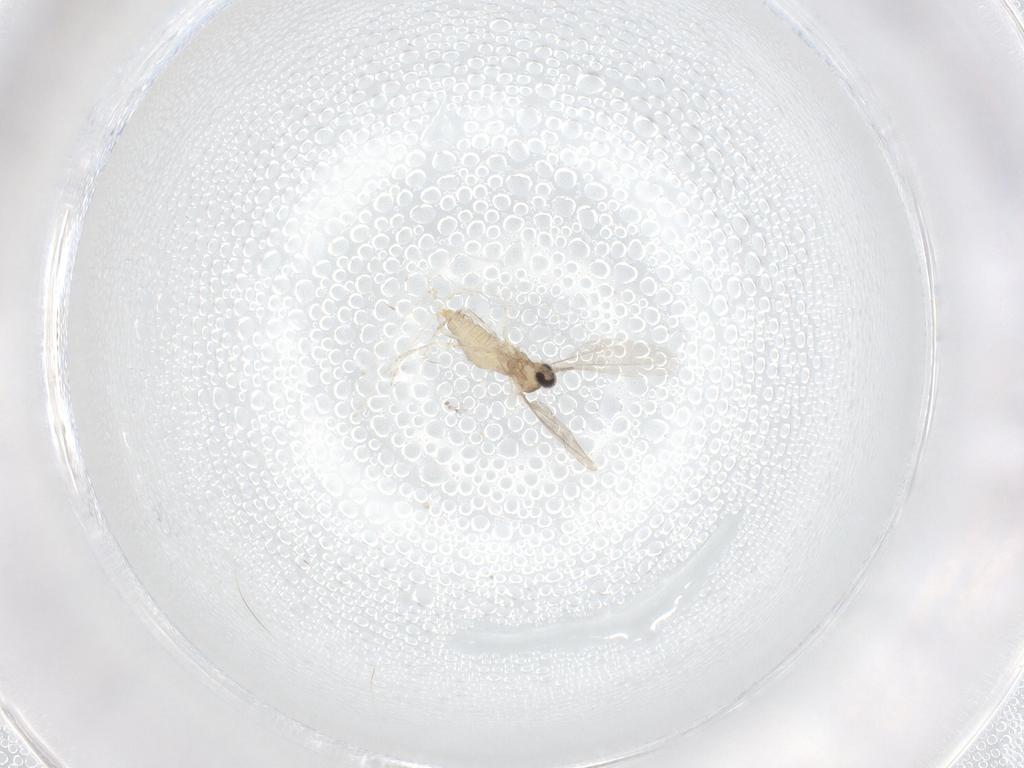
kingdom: Animalia
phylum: Arthropoda
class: Insecta
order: Diptera
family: Cecidomyiidae
